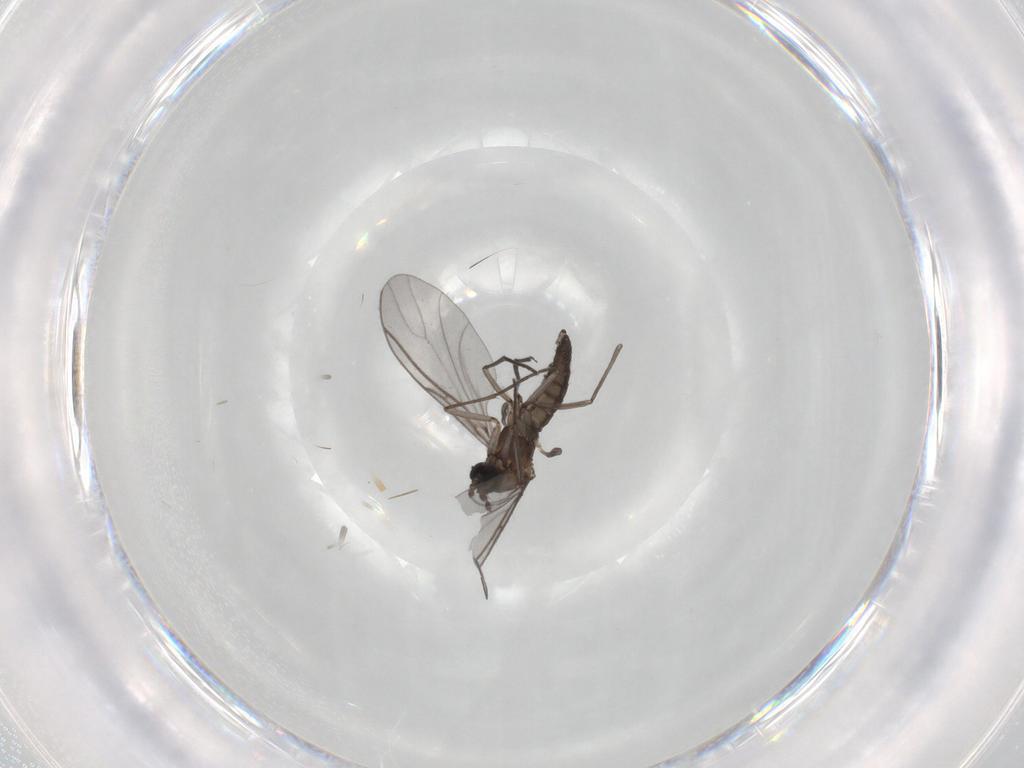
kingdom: Animalia
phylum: Arthropoda
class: Insecta
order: Diptera
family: Sciaridae
